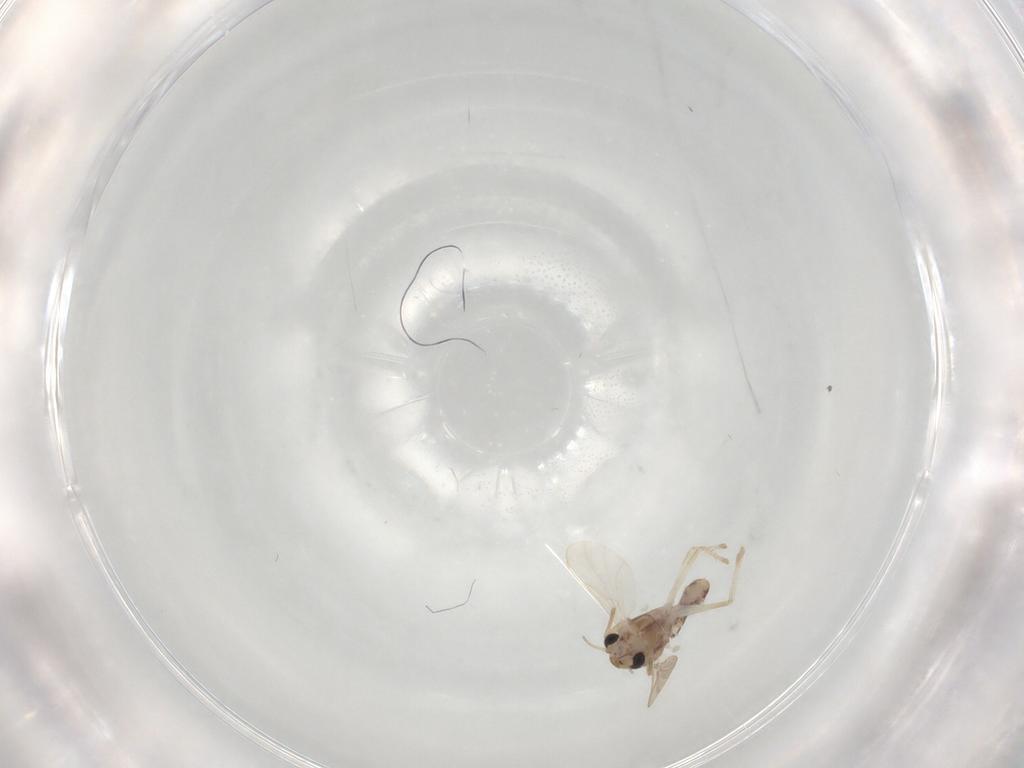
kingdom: Animalia
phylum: Arthropoda
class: Insecta
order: Diptera
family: Chironomidae
